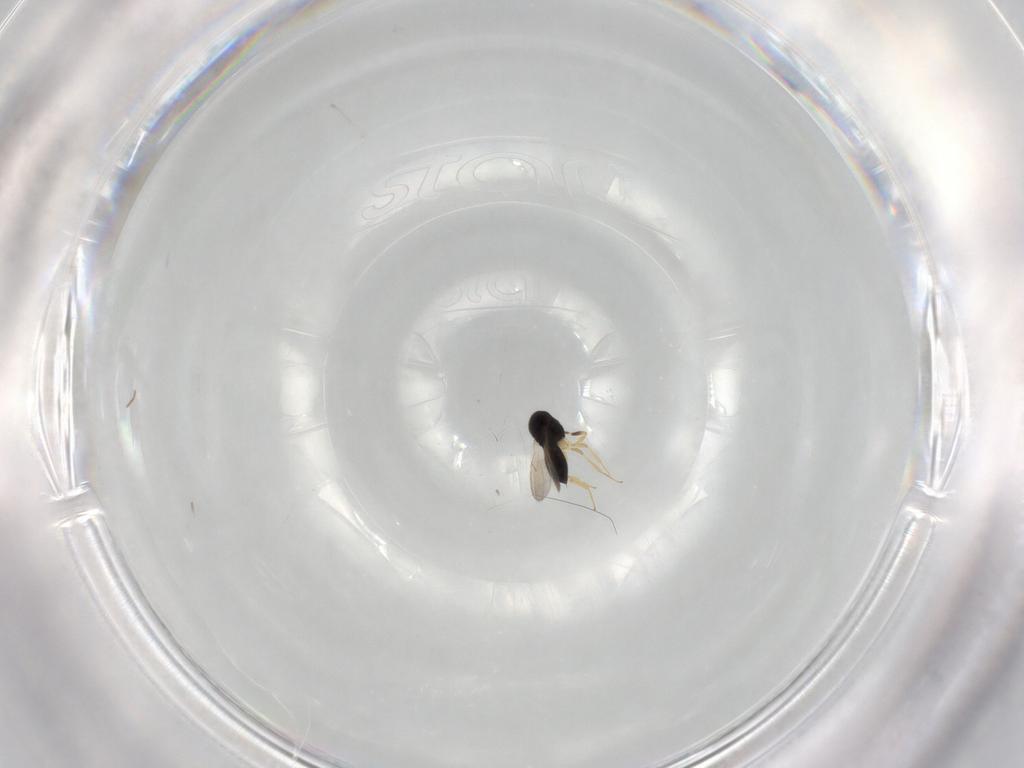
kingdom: Animalia
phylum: Arthropoda
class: Insecta
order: Hymenoptera
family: Scelionidae
